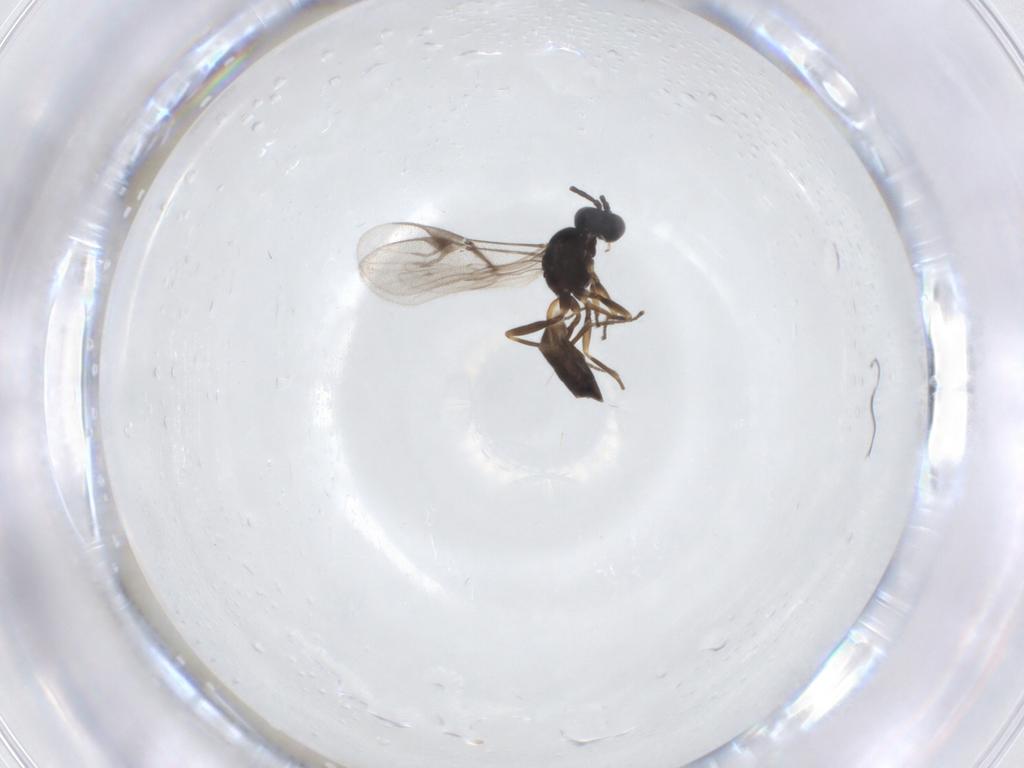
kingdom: Animalia
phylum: Arthropoda
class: Insecta
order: Hymenoptera
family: Braconidae
